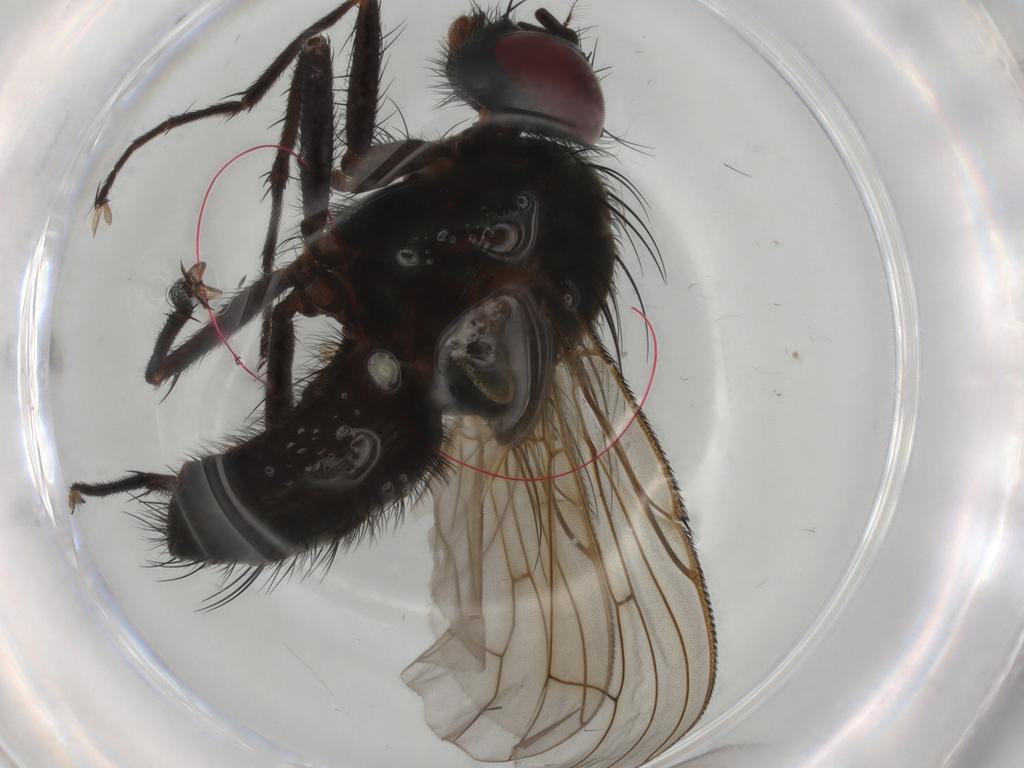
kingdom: Animalia
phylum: Arthropoda
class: Insecta
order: Diptera
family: Muscidae
